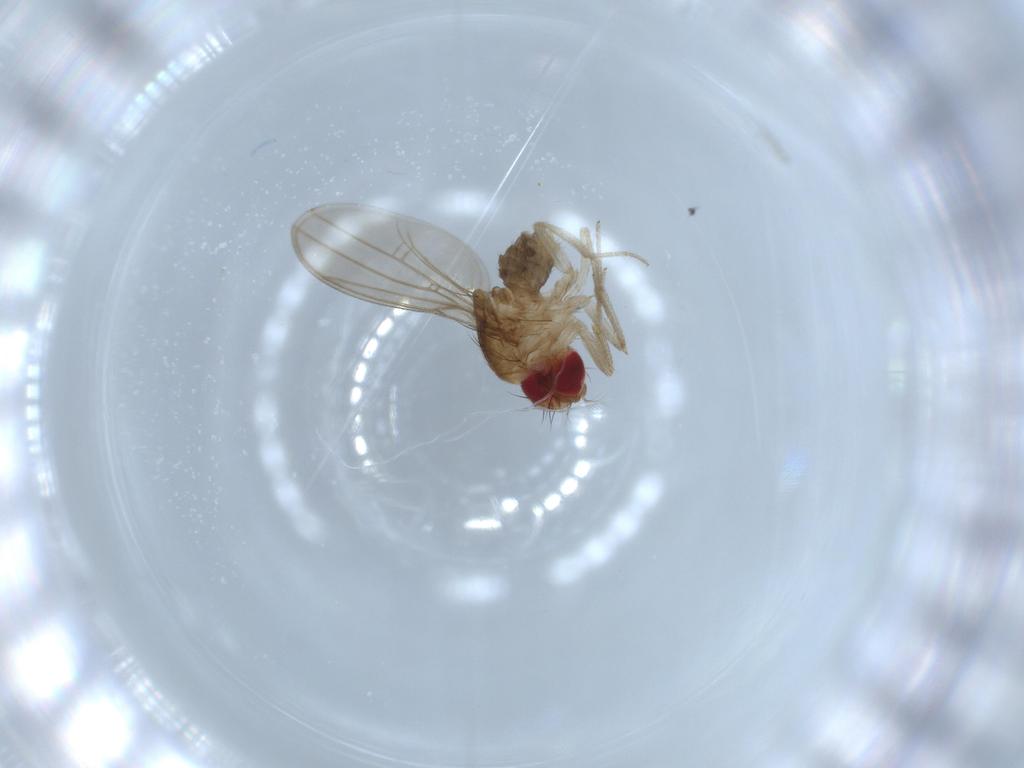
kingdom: Animalia
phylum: Arthropoda
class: Insecta
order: Diptera
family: Drosophilidae
